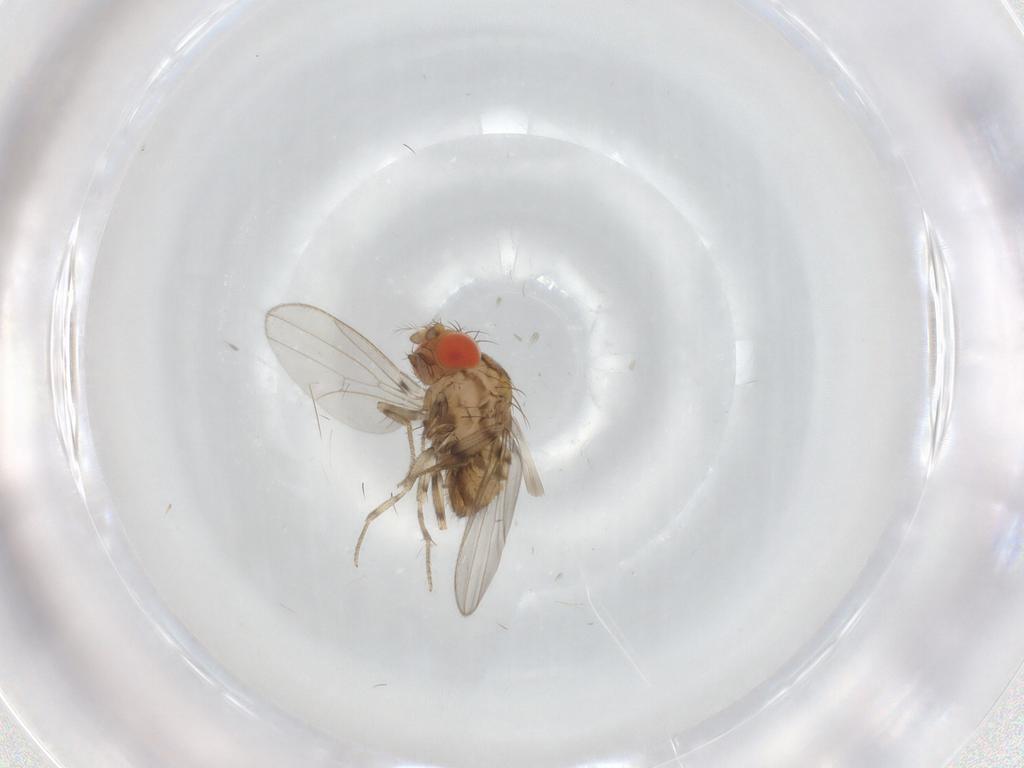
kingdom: Animalia
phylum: Arthropoda
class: Insecta
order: Diptera
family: Drosophilidae
